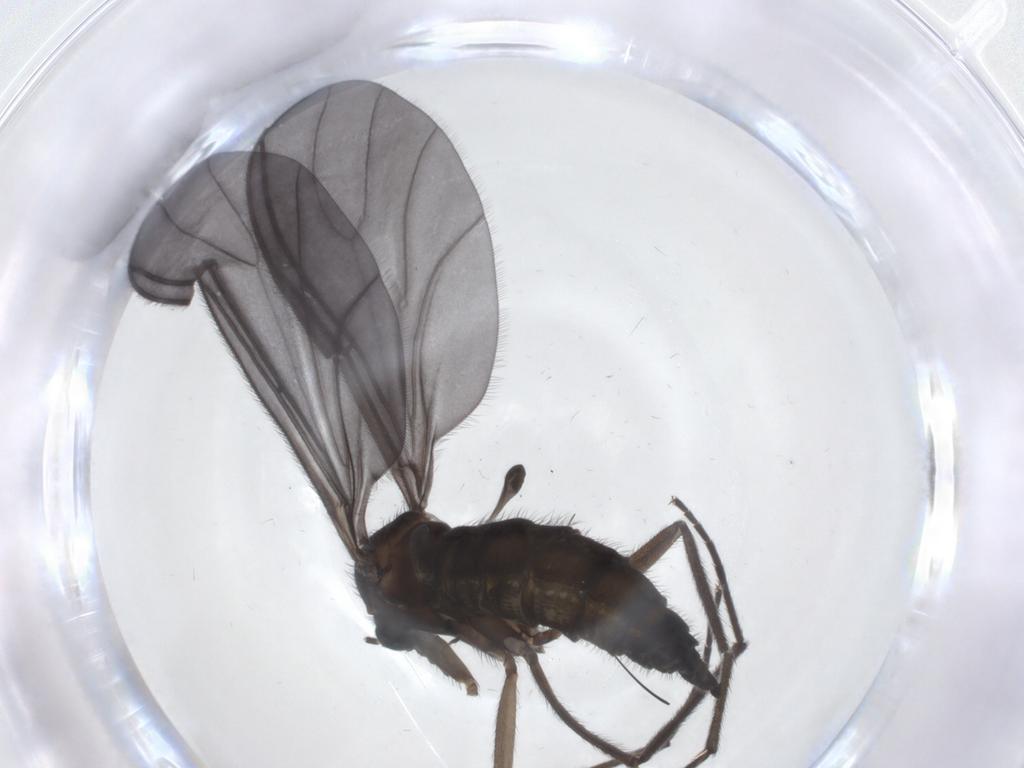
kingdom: Animalia
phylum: Arthropoda
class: Insecta
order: Diptera
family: Sciaridae
